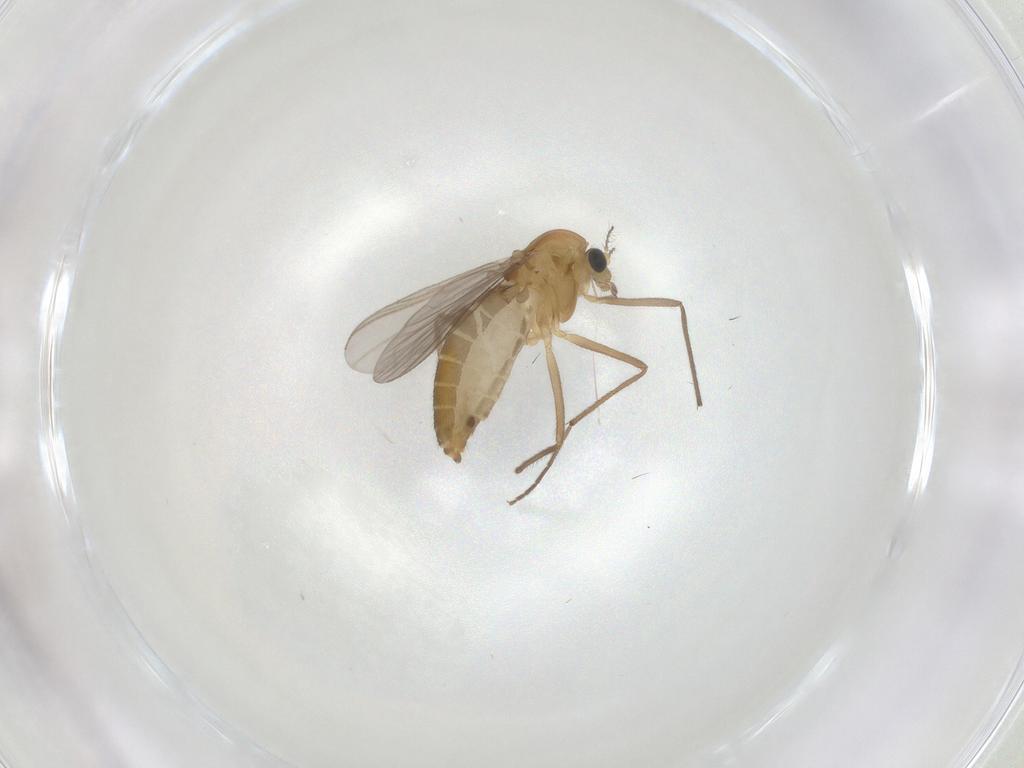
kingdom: Animalia
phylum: Arthropoda
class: Insecta
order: Diptera
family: Chironomidae
